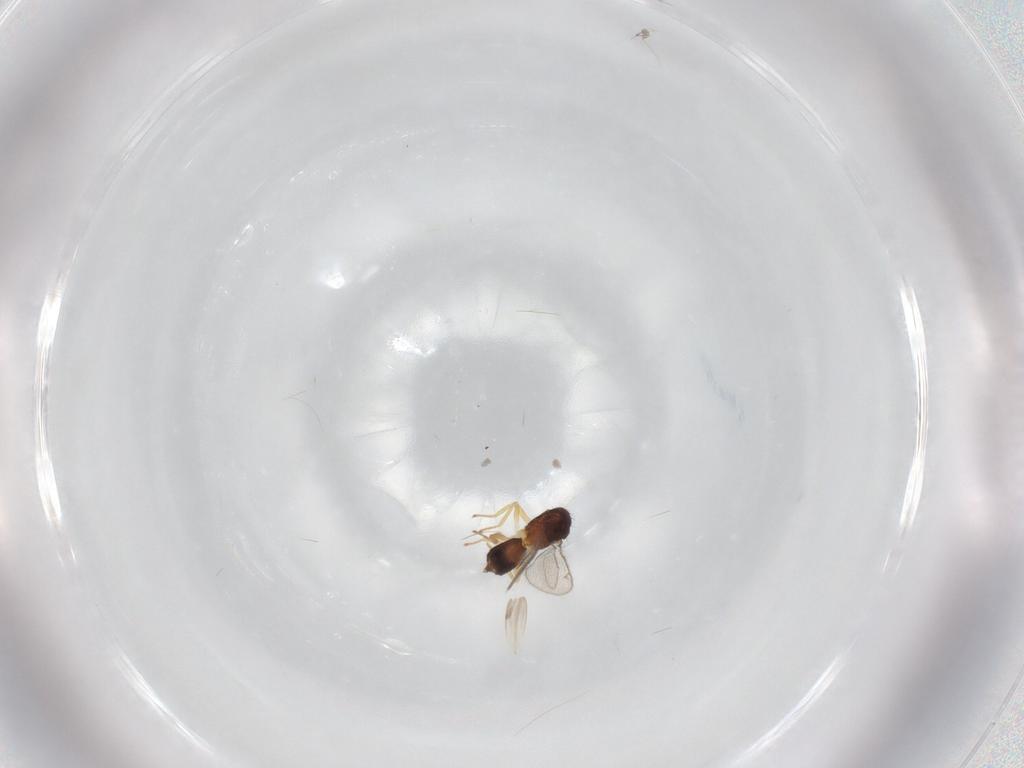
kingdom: Animalia
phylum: Arthropoda
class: Insecta
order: Hymenoptera
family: Eulophidae
